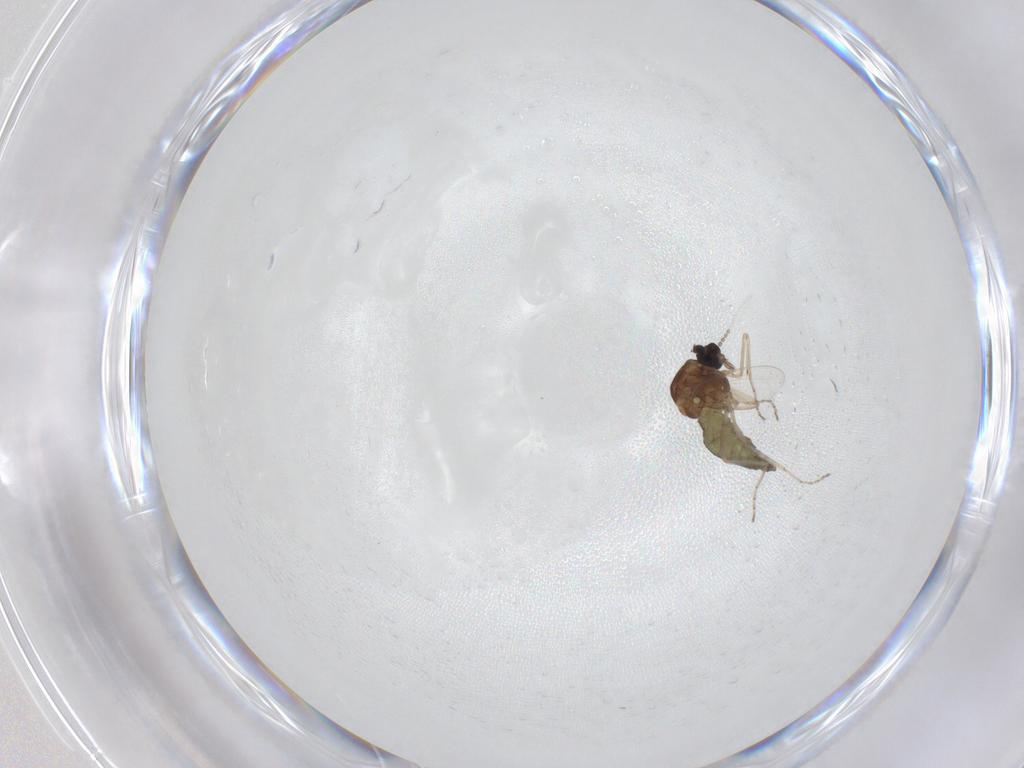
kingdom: Animalia
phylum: Arthropoda
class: Insecta
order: Diptera
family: Ceratopogonidae
